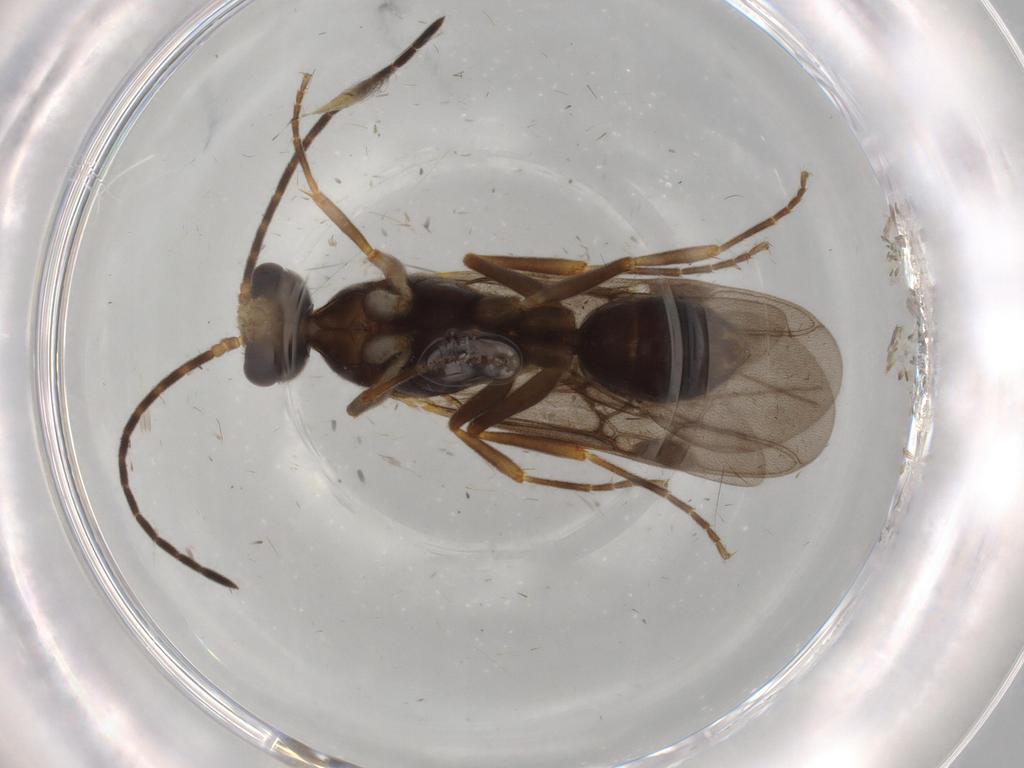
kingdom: Animalia
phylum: Arthropoda
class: Insecta
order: Hymenoptera
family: Formicidae
